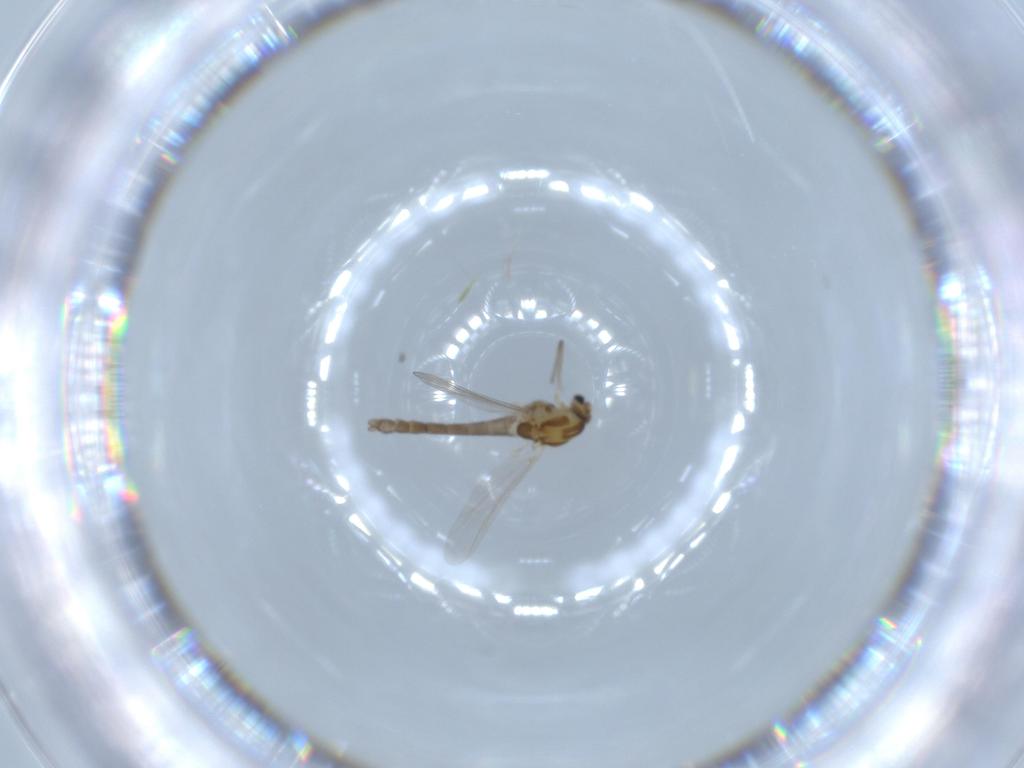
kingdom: Animalia
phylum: Arthropoda
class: Insecta
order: Diptera
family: Chironomidae
